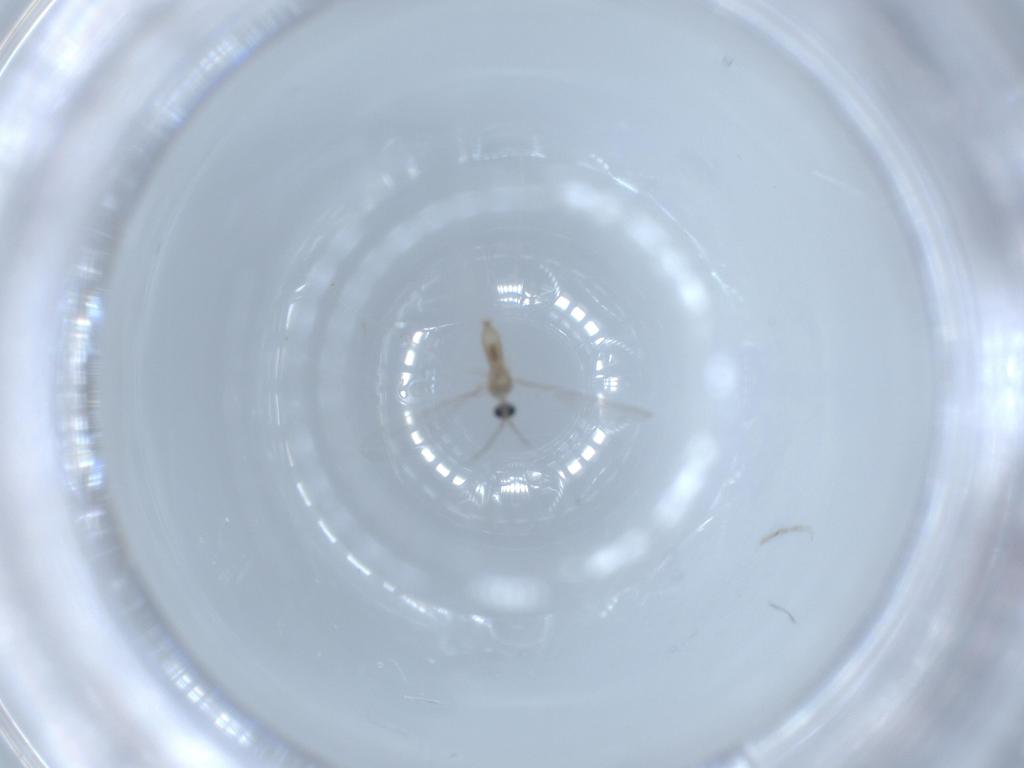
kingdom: Animalia
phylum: Arthropoda
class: Insecta
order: Diptera
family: Cecidomyiidae
